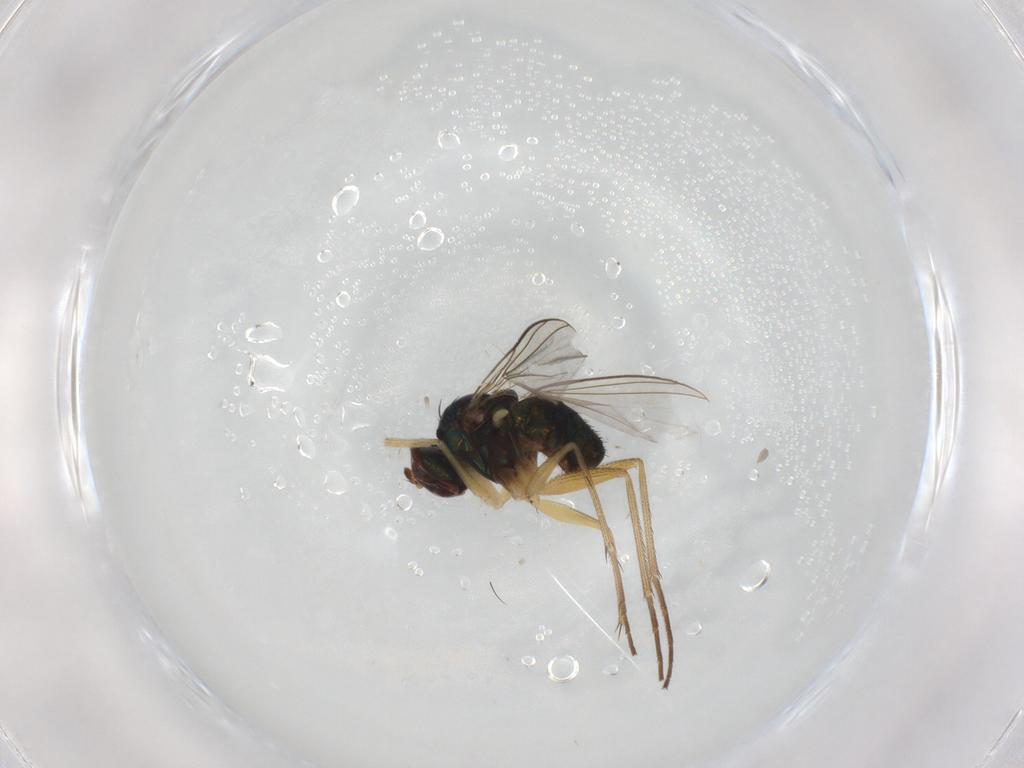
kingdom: Animalia
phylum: Arthropoda
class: Insecta
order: Diptera
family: Dolichopodidae
